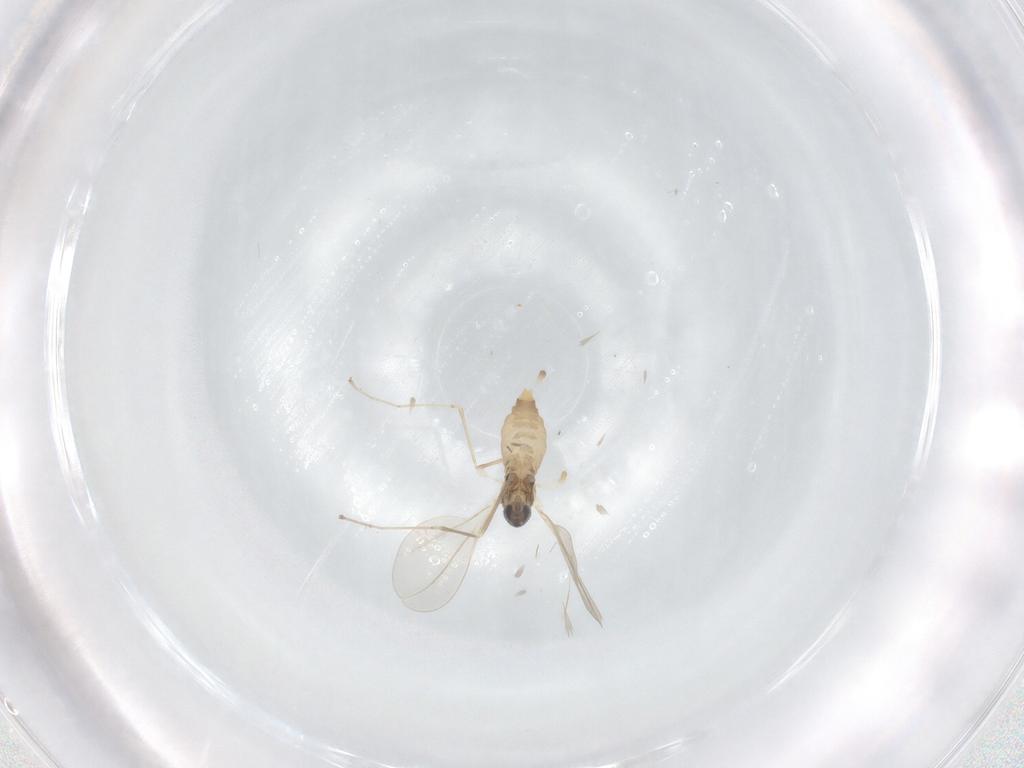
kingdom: Animalia
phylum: Arthropoda
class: Insecta
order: Diptera
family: Cecidomyiidae
